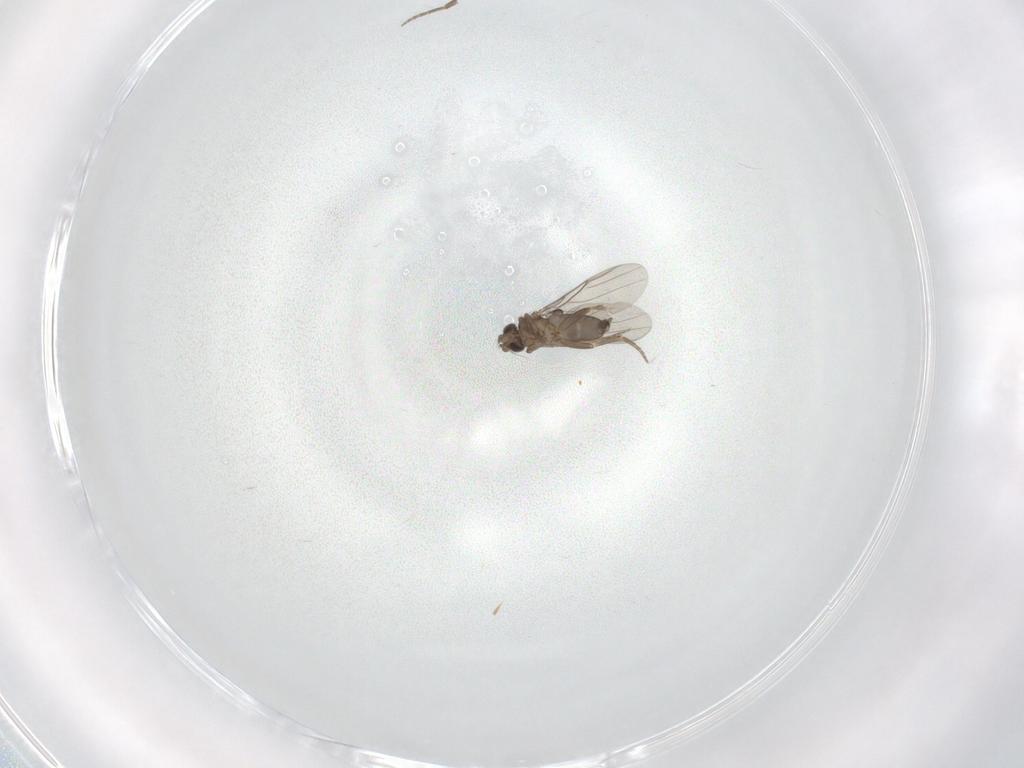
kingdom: Animalia
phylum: Arthropoda
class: Insecta
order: Diptera
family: Phoridae
